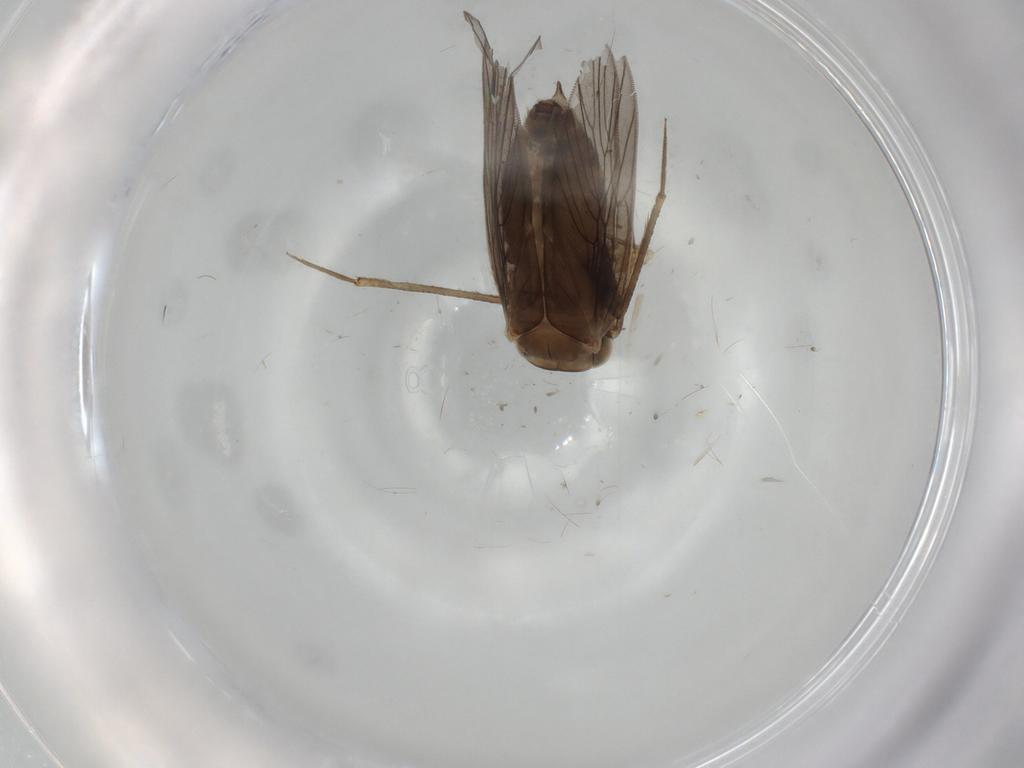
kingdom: Animalia
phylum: Arthropoda
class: Insecta
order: Psocodea
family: Lepidopsocidae
